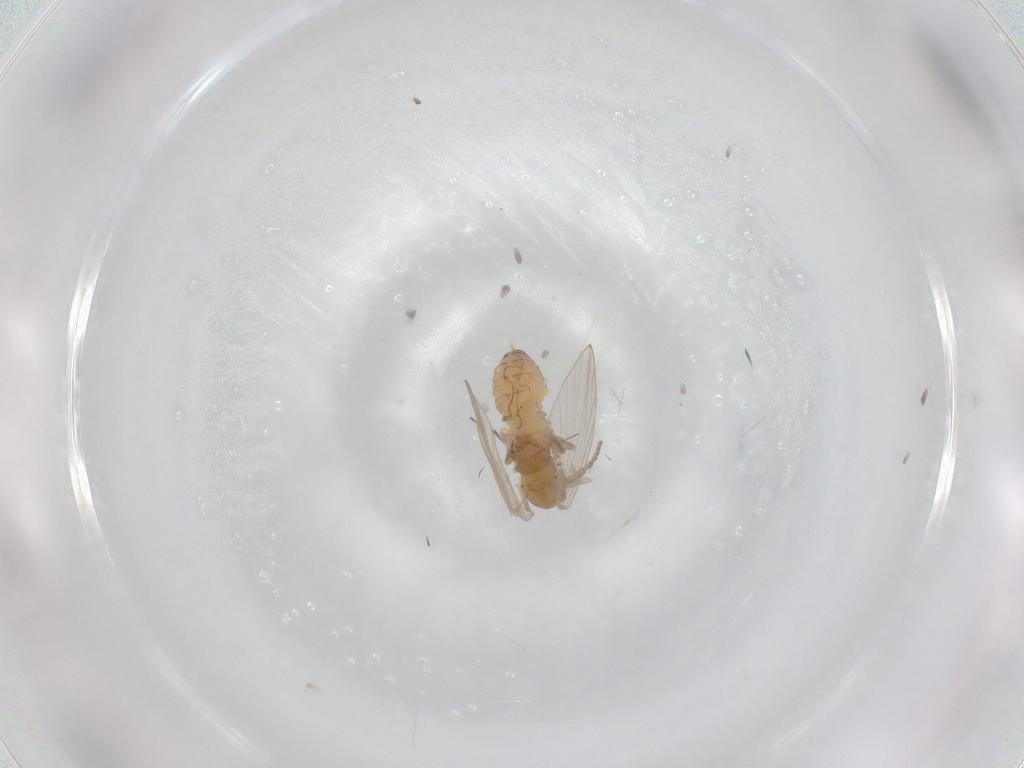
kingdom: Animalia
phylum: Arthropoda
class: Insecta
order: Diptera
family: Psychodidae
